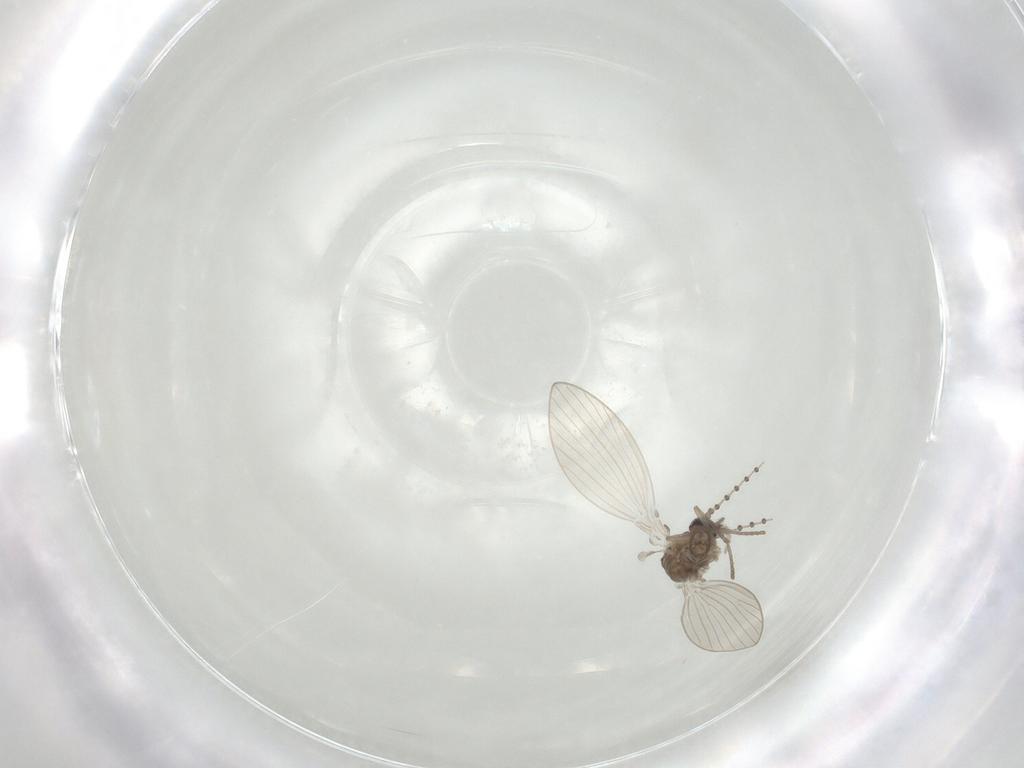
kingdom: Animalia
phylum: Arthropoda
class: Insecta
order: Diptera
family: Psychodidae
